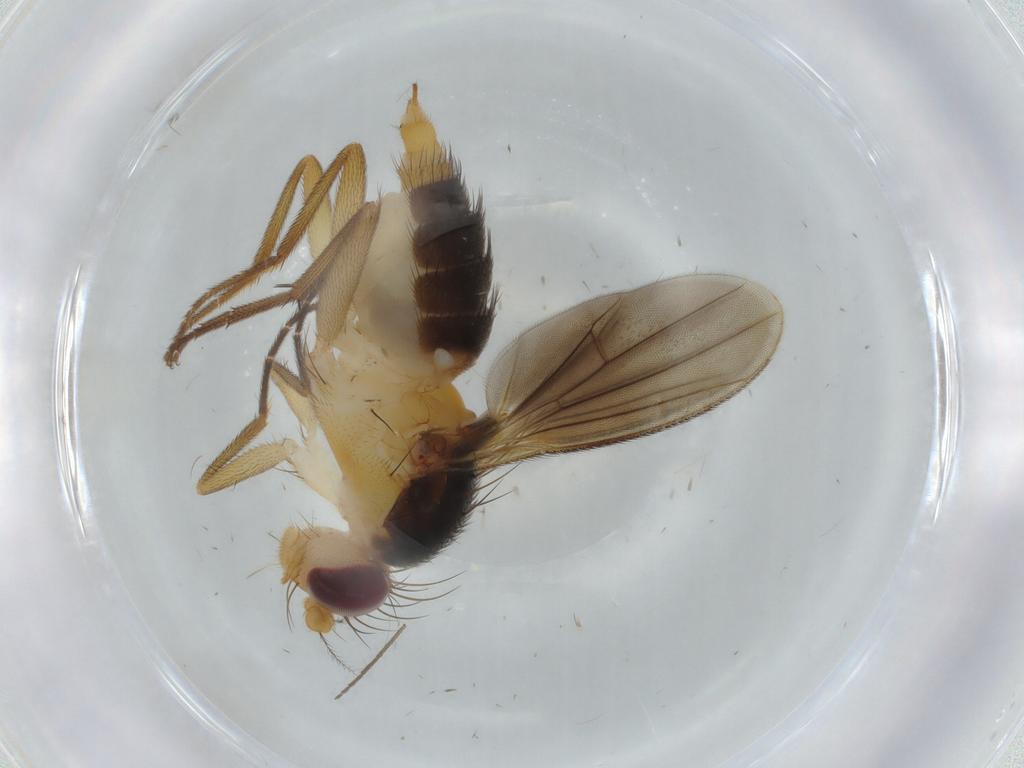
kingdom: Animalia
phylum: Arthropoda
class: Insecta
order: Diptera
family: Clusiidae
